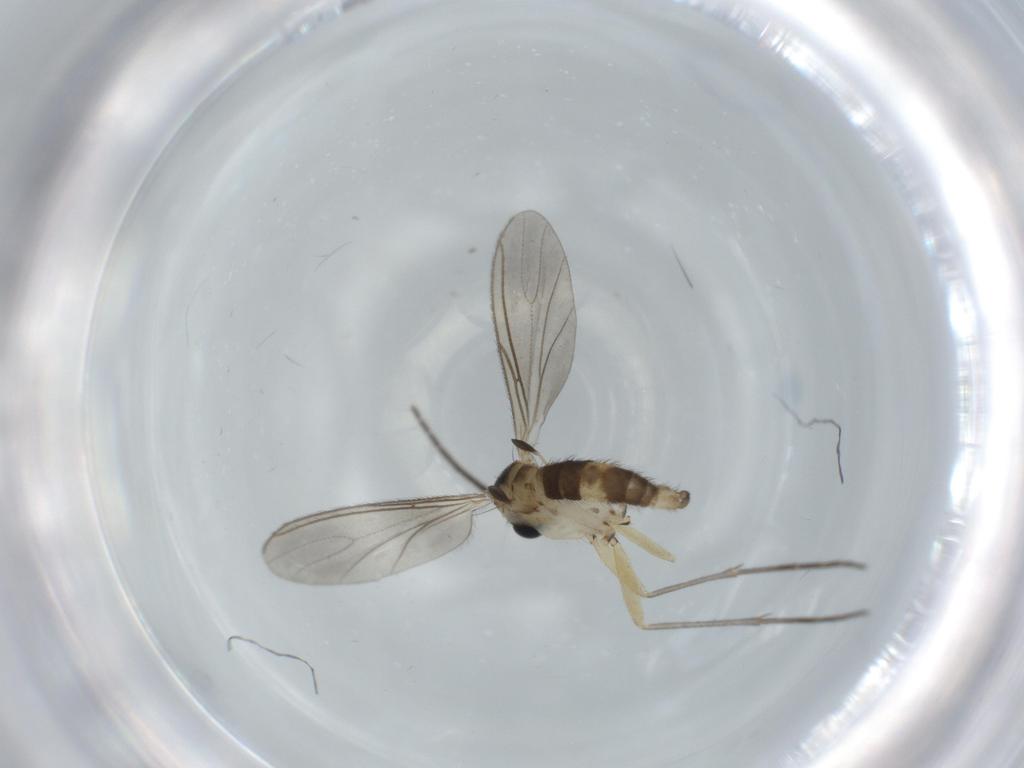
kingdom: Animalia
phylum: Arthropoda
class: Insecta
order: Diptera
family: Sciaridae
